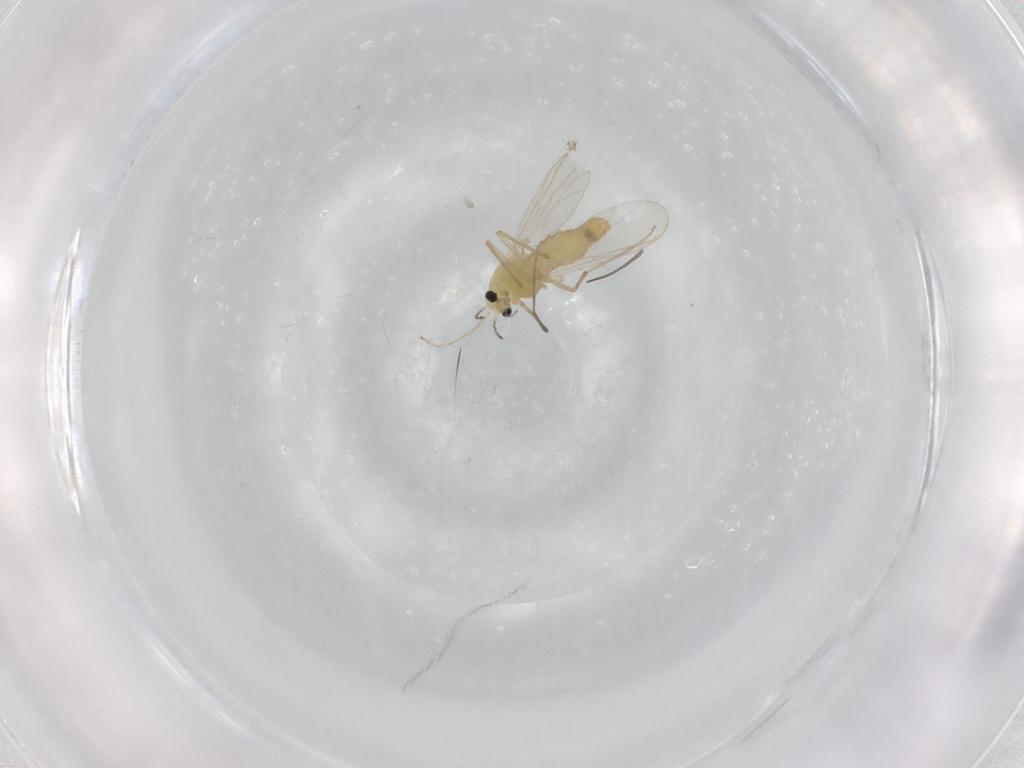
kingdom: Animalia
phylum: Arthropoda
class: Insecta
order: Diptera
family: Chironomidae
